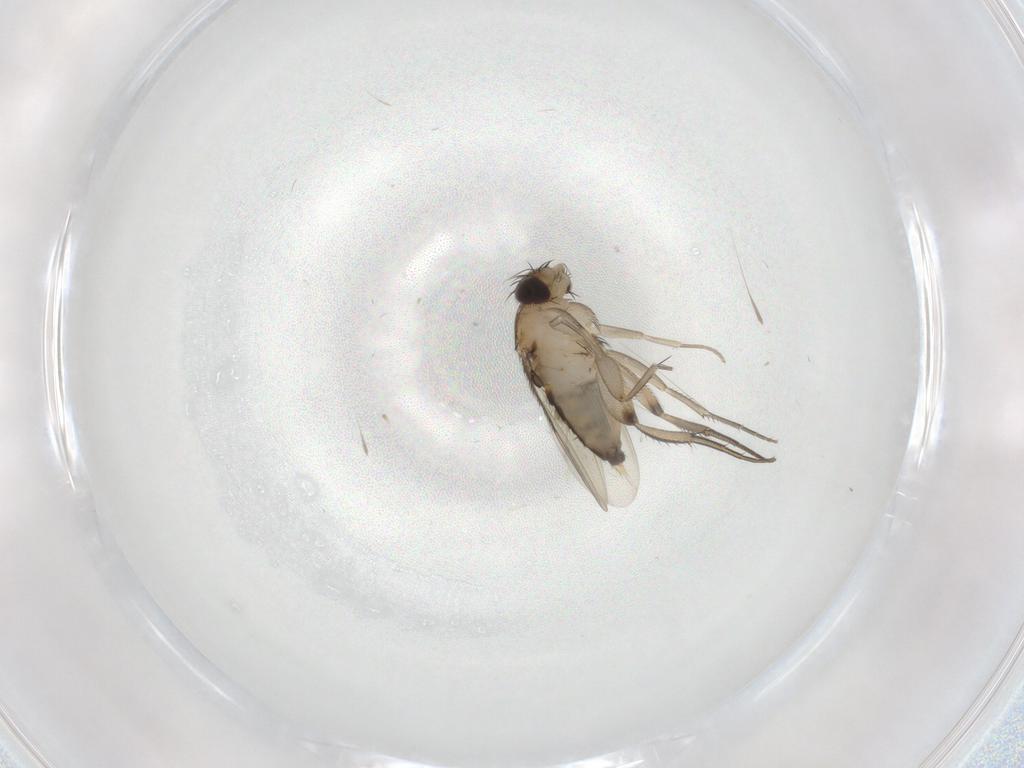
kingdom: Animalia
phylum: Arthropoda
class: Insecta
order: Diptera
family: Phoridae
